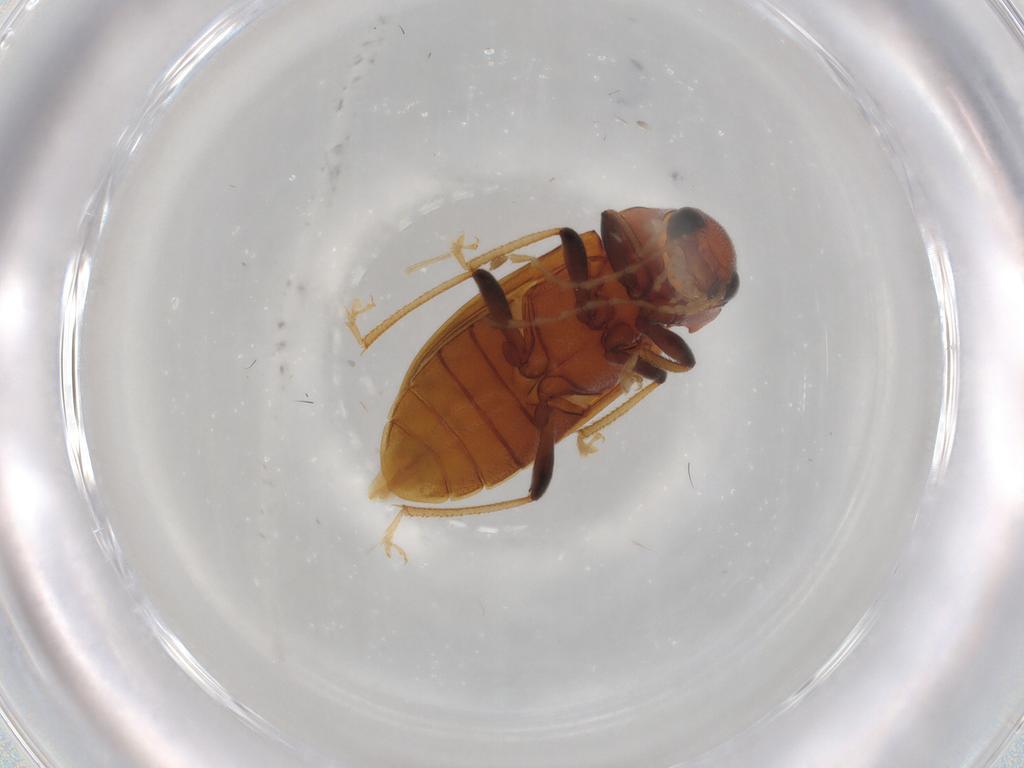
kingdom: Animalia
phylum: Arthropoda
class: Insecta
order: Coleoptera
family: Ptilodactylidae
